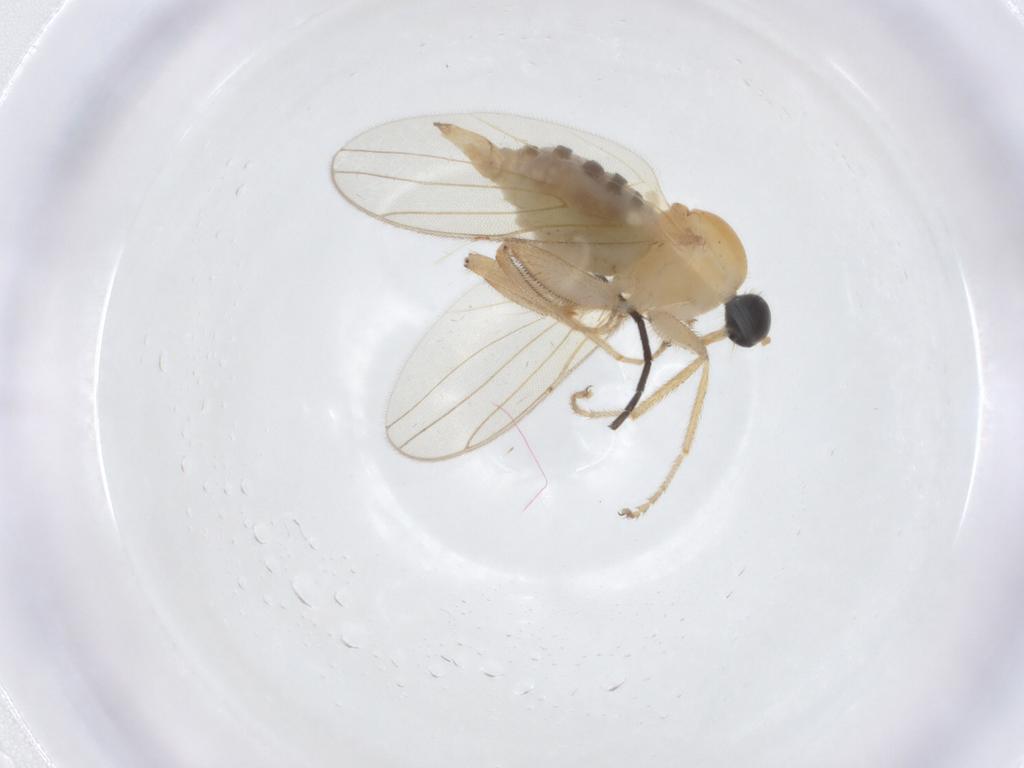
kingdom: Animalia
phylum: Arthropoda
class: Insecta
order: Diptera
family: Hybotidae
